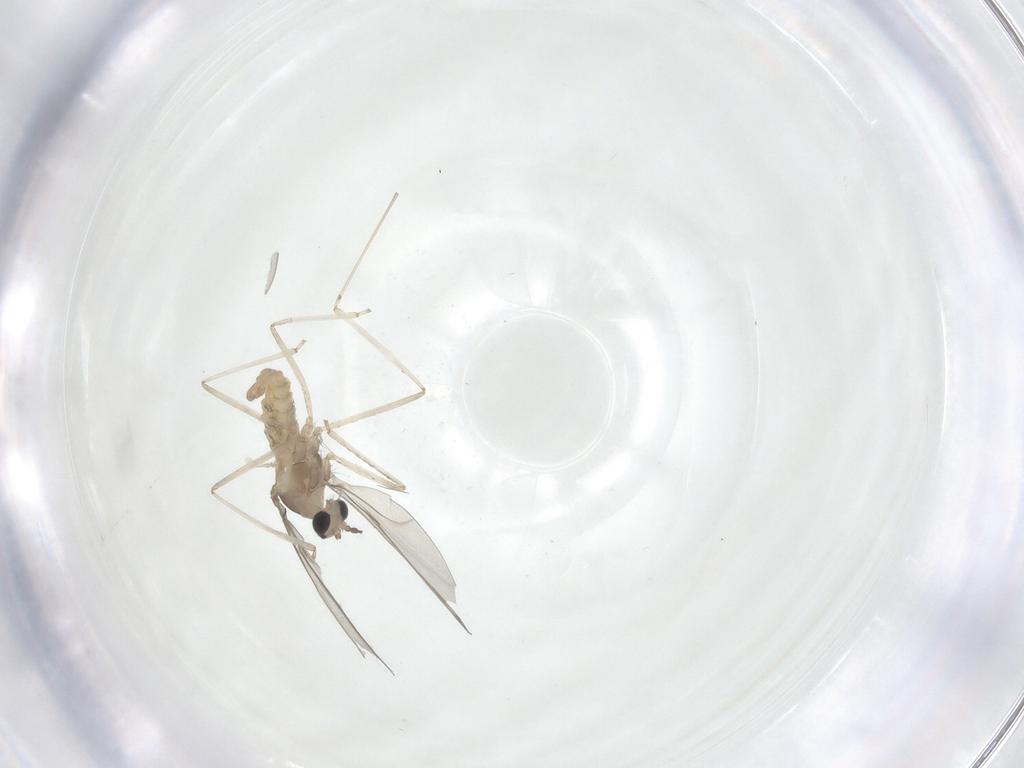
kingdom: Animalia
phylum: Arthropoda
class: Insecta
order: Diptera
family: Cecidomyiidae
